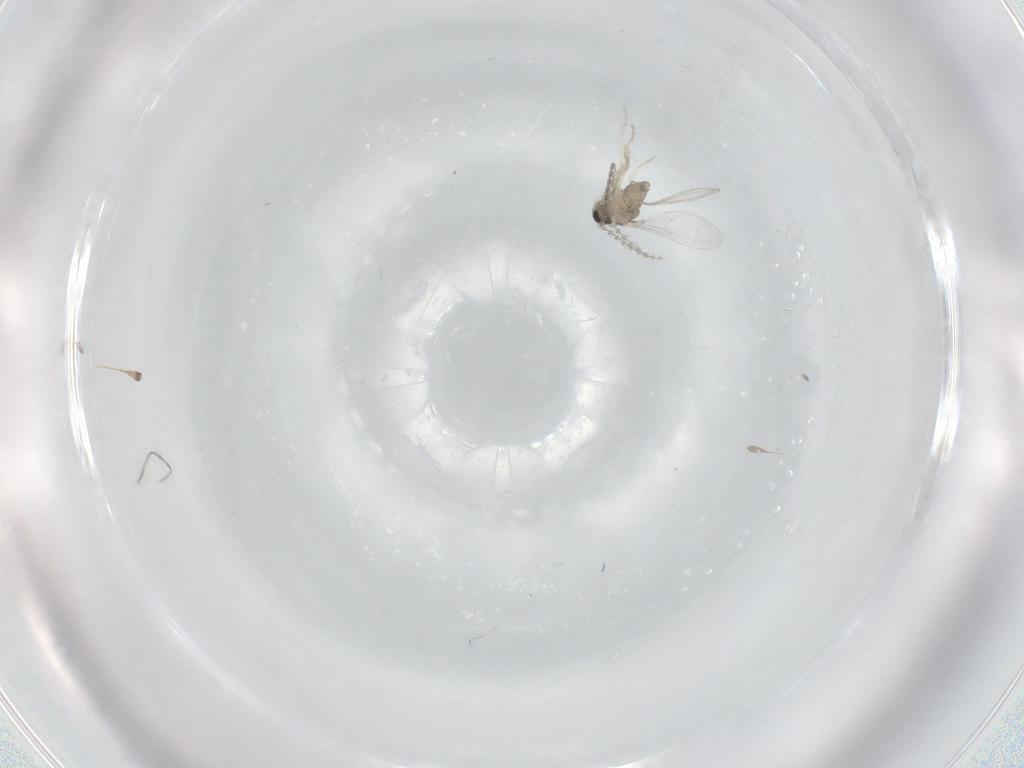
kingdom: Animalia
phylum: Arthropoda
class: Insecta
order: Diptera
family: Cecidomyiidae
